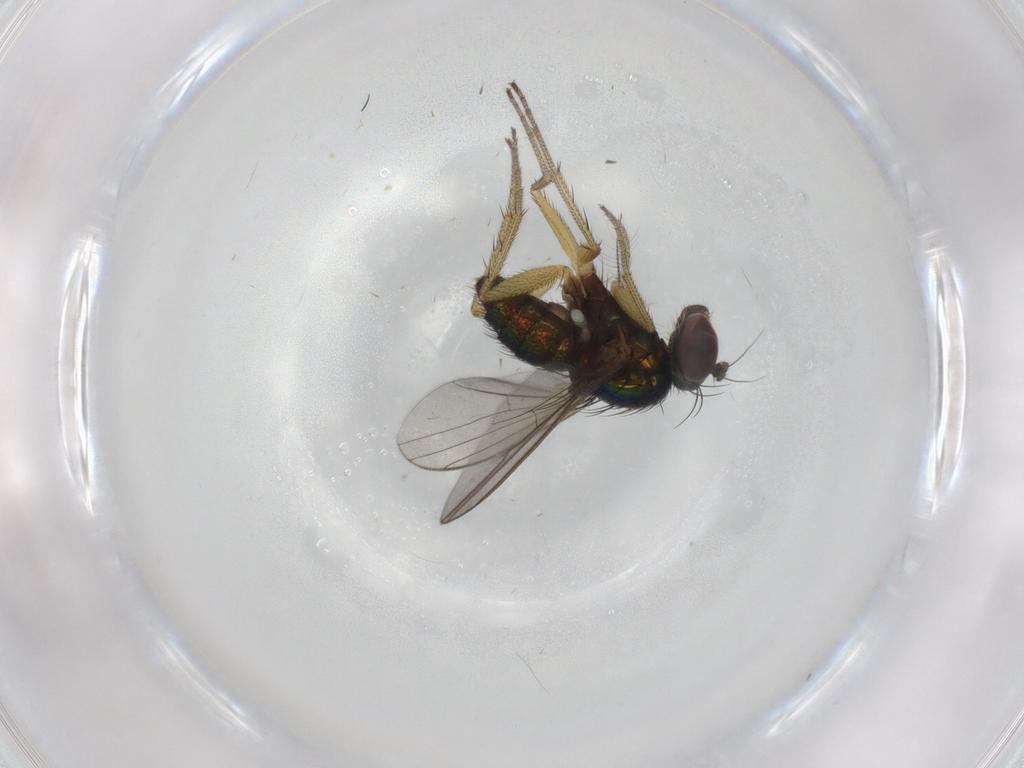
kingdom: Animalia
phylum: Arthropoda
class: Insecta
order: Diptera
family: Dolichopodidae
